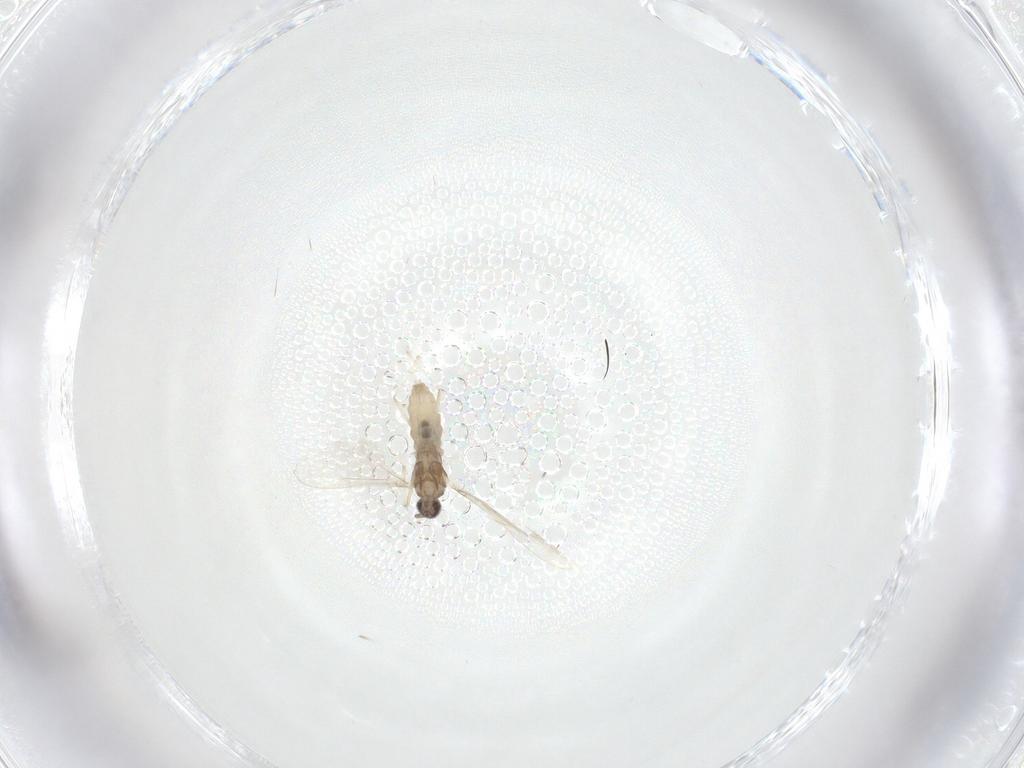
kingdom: Animalia
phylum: Arthropoda
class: Insecta
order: Diptera
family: Cecidomyiidae
